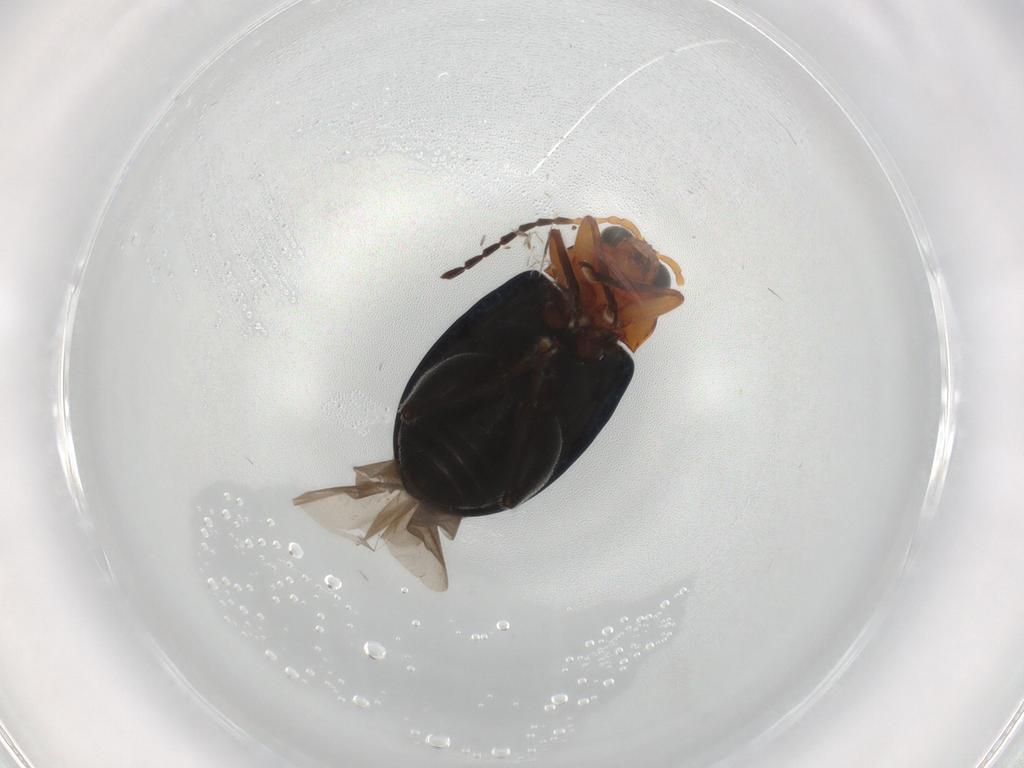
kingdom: Animalia
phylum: Arthropoda
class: Insecta
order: Coleoptera
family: Chrysomelidae
